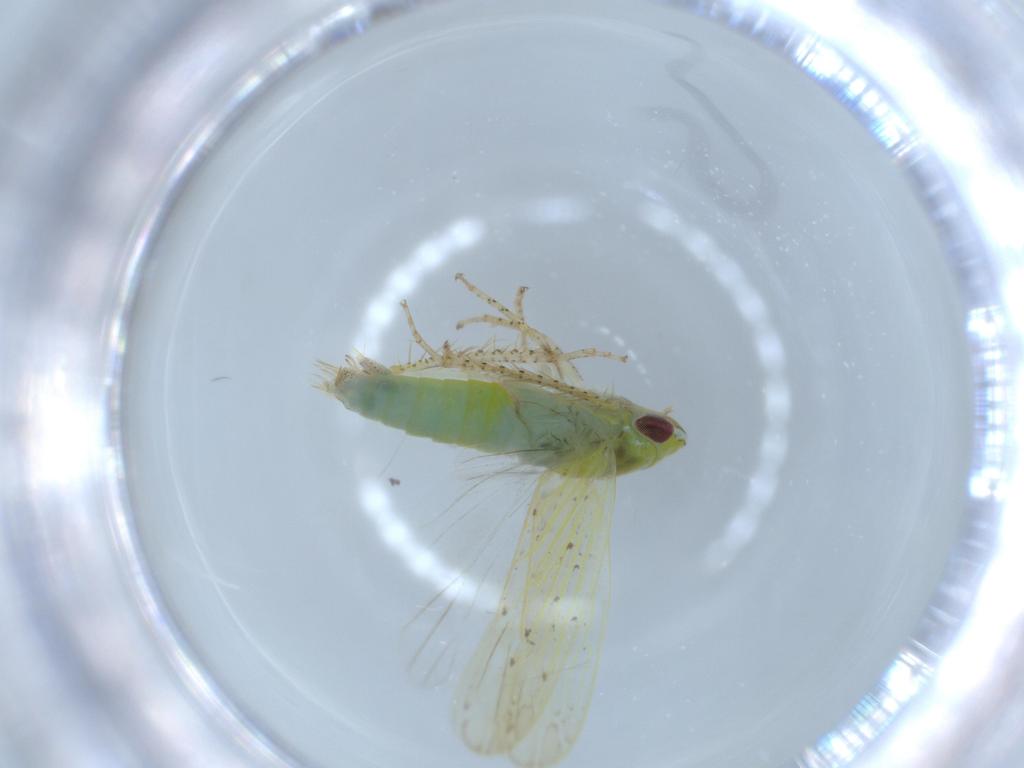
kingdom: Animalia
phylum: Arthropoda
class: Insecta
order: Hemiptera
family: Cicadellidae
